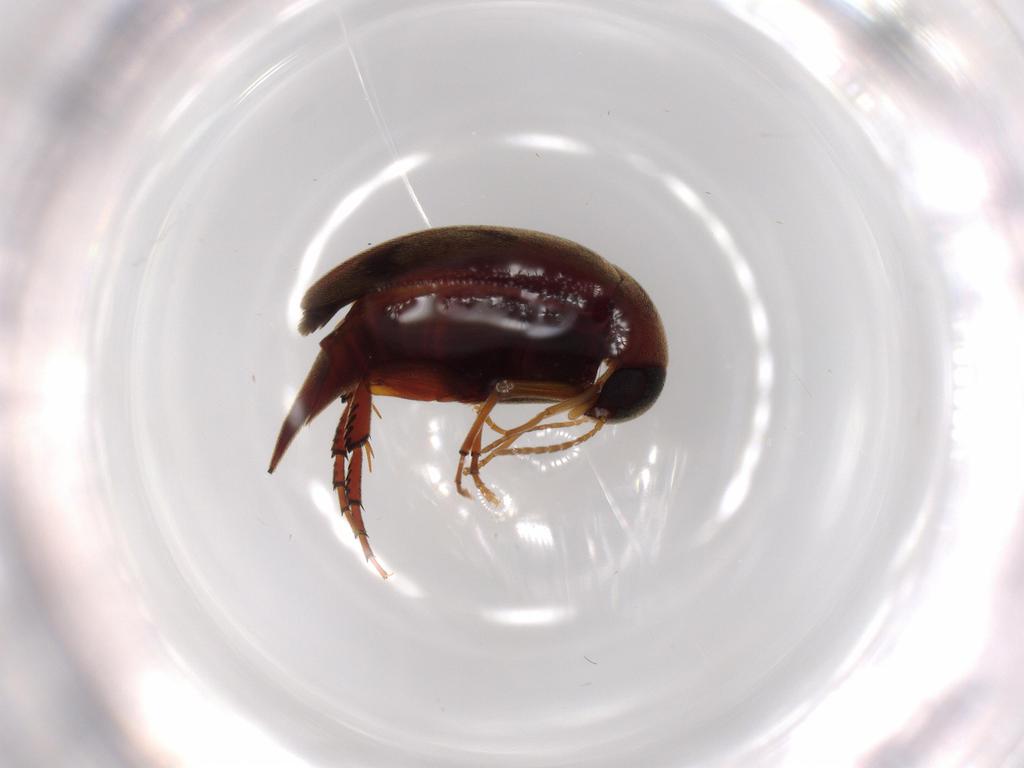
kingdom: Animalia
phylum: Arthropoda
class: Insecta
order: Coleoptera
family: Mordellidae
